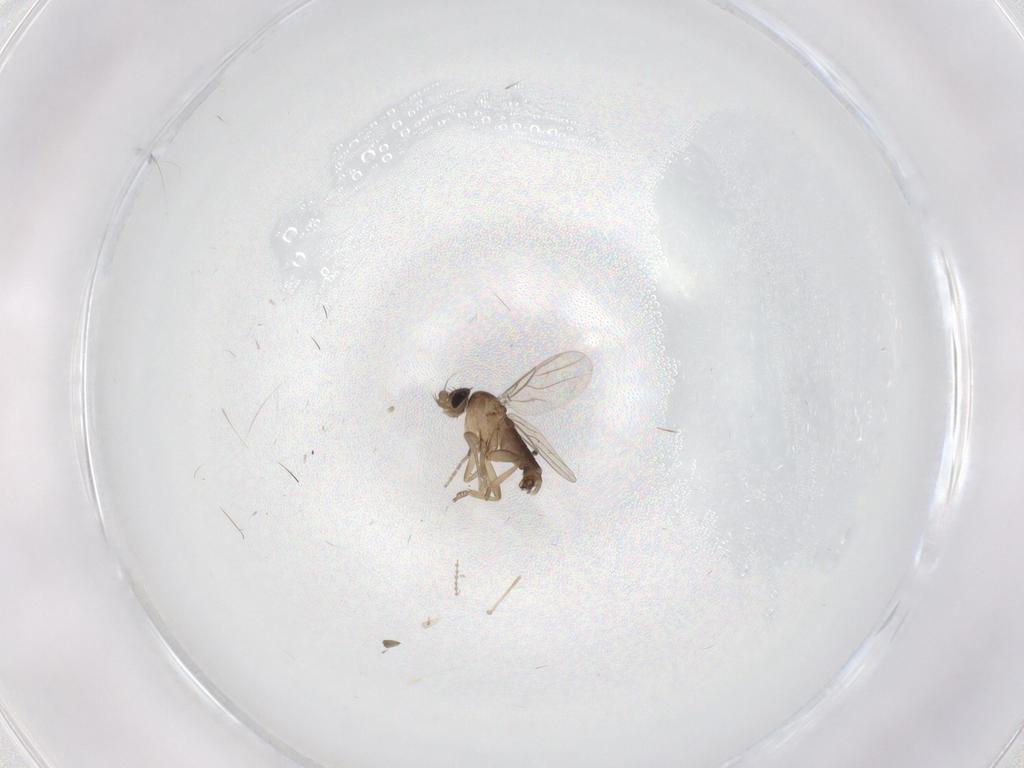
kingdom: Animalia
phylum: Arthropoda
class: Insecta
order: Diptera
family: Phoridae
